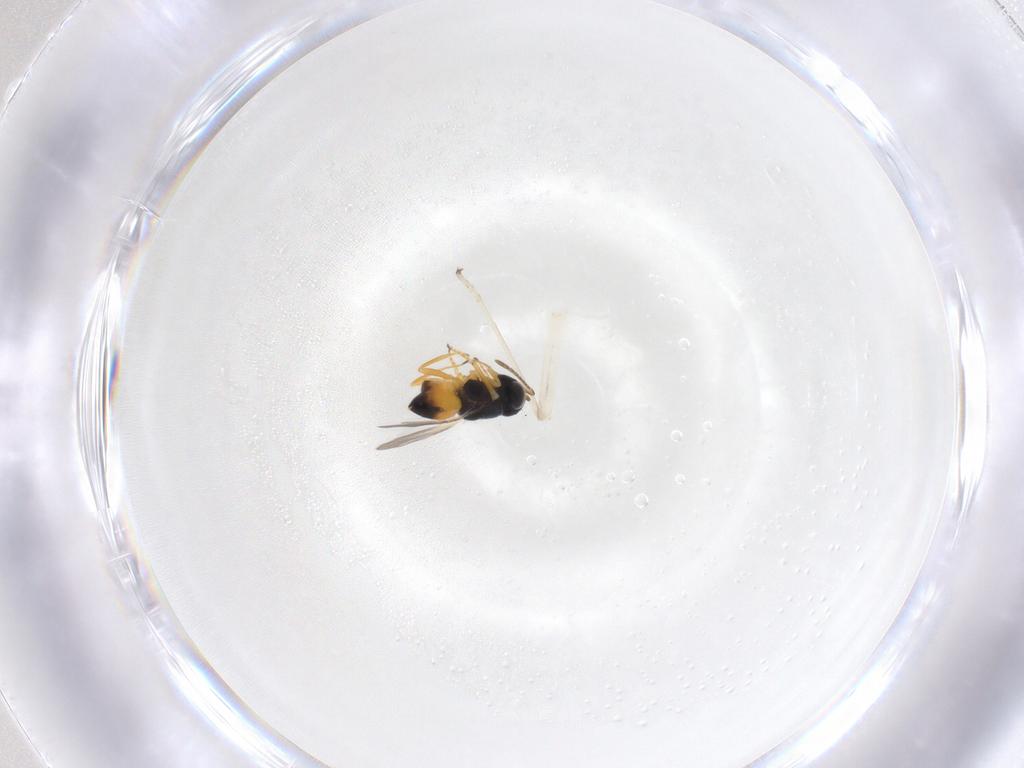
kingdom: Animalia
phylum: Arthropoda
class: Insecta
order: Hymenoptera
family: Encyrtidae
